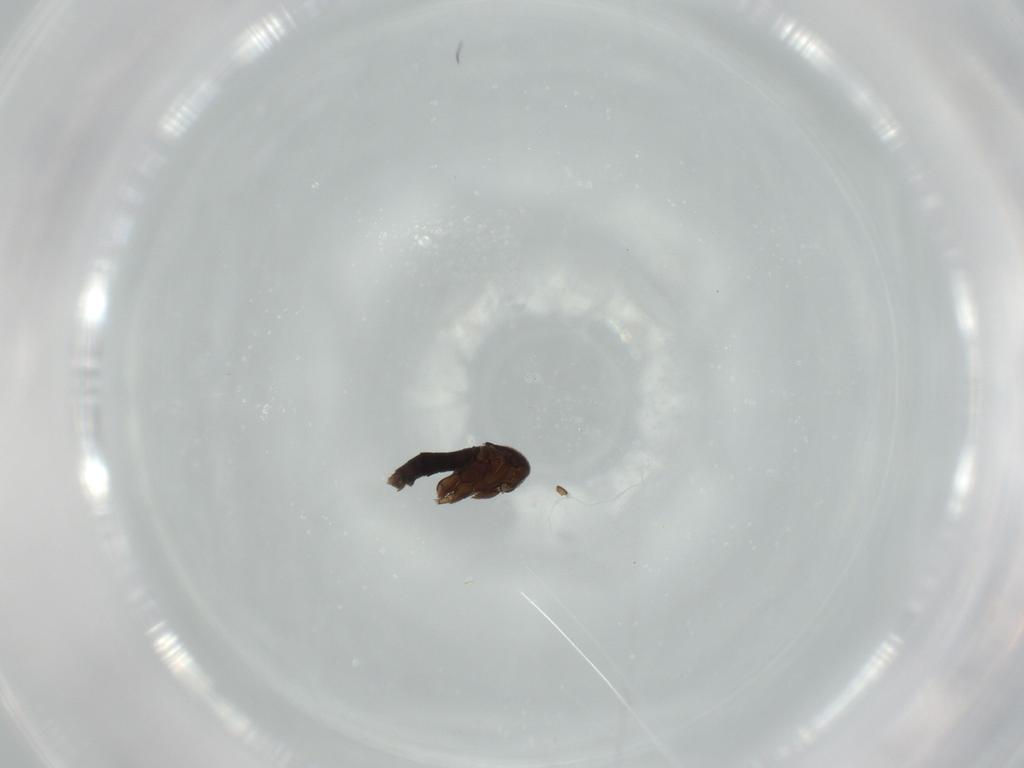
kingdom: Animalia
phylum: Arthropoda
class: Insecta
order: Diptera
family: Phoridae
